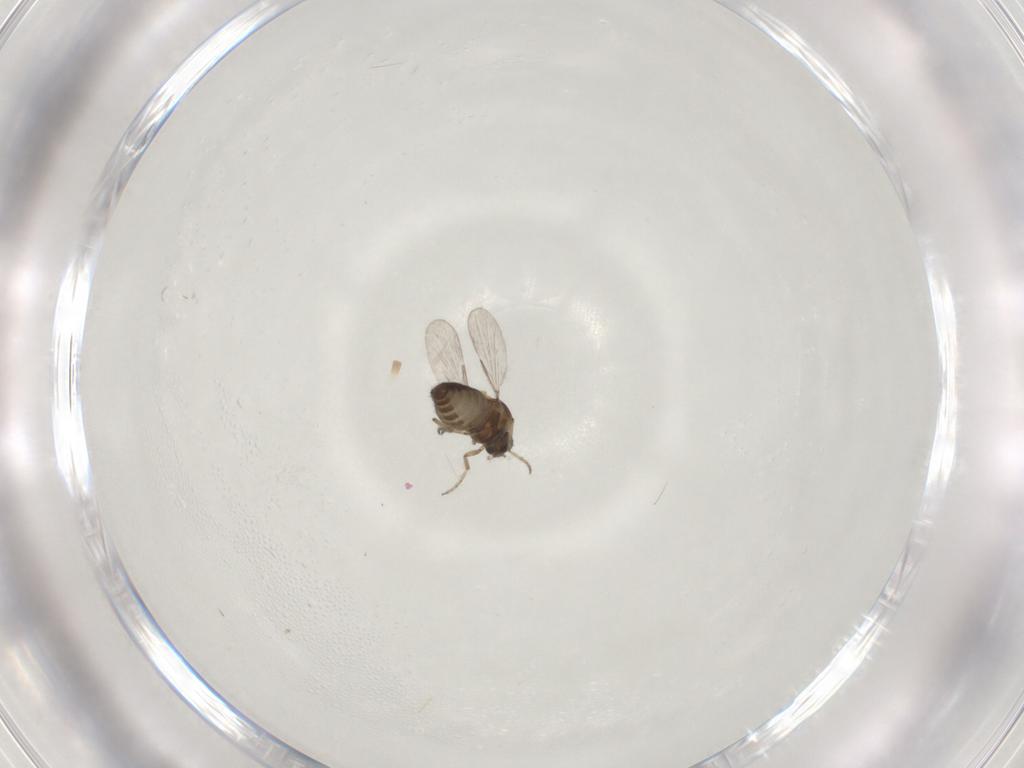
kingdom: Animalia
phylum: Arthropoda
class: Insecta
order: Diptera
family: Ceratopogonidae
